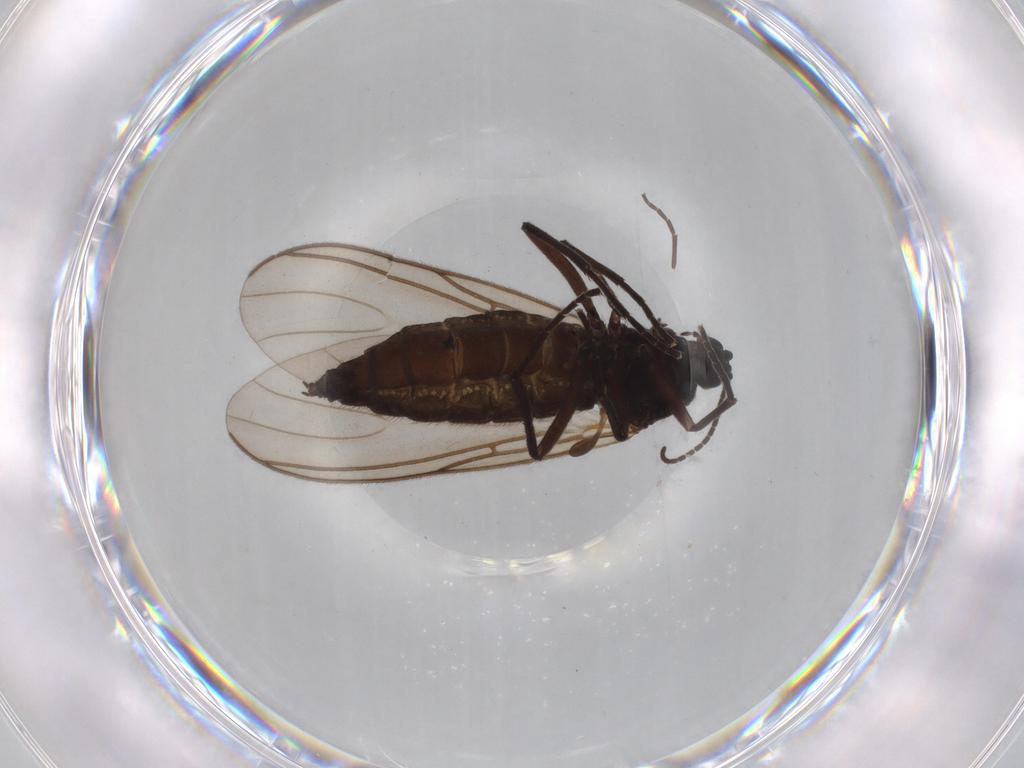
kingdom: Animalia
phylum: Arthropoda
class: Insecta
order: Diptera
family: Sciaridae
